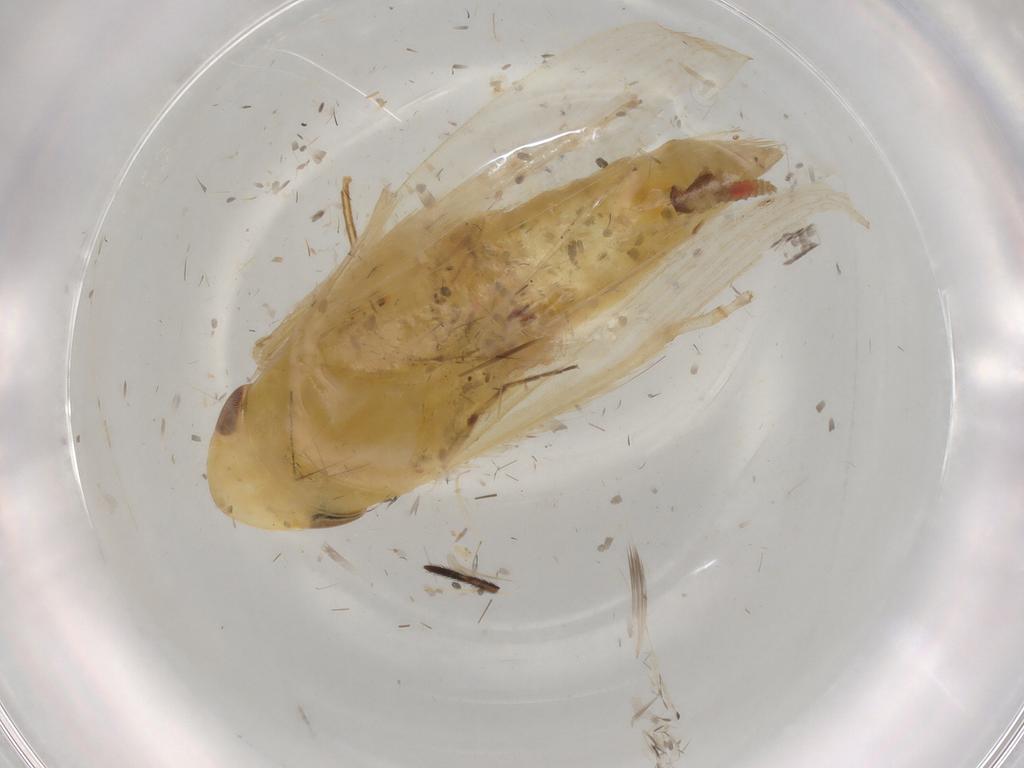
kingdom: Animalia
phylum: Arthropoda
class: Insecta
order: Hemiptera
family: Cicadellidae
